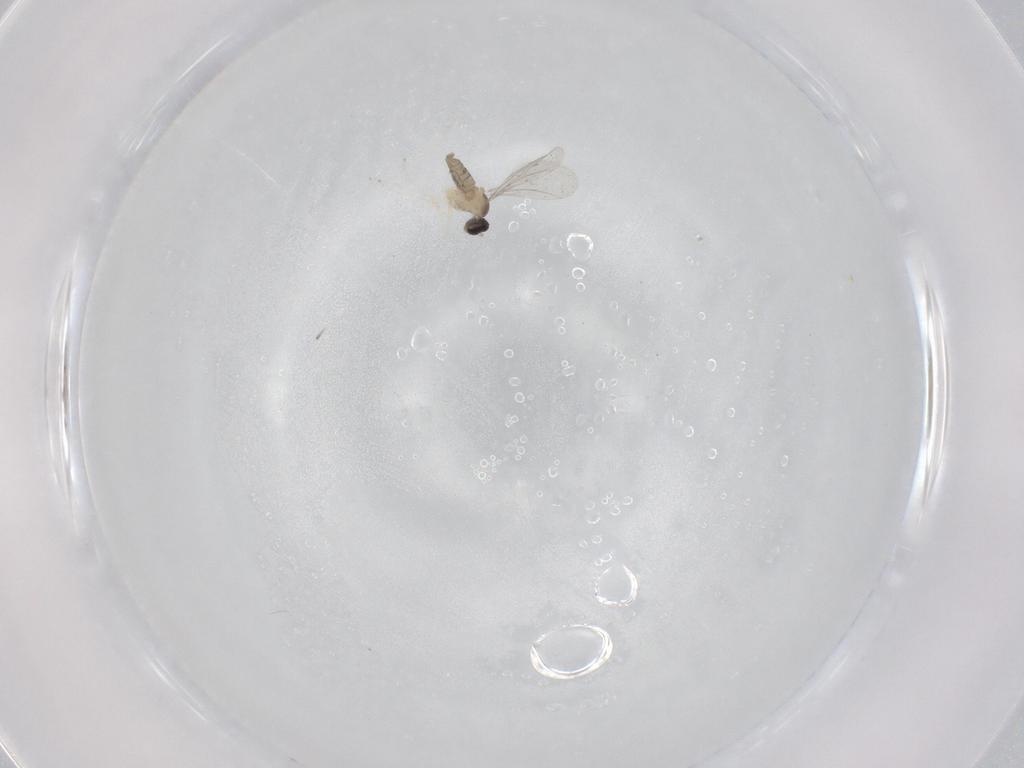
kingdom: Animalia
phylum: Arthropoda
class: Insecta
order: Diptera
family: Cecidomyiidae
